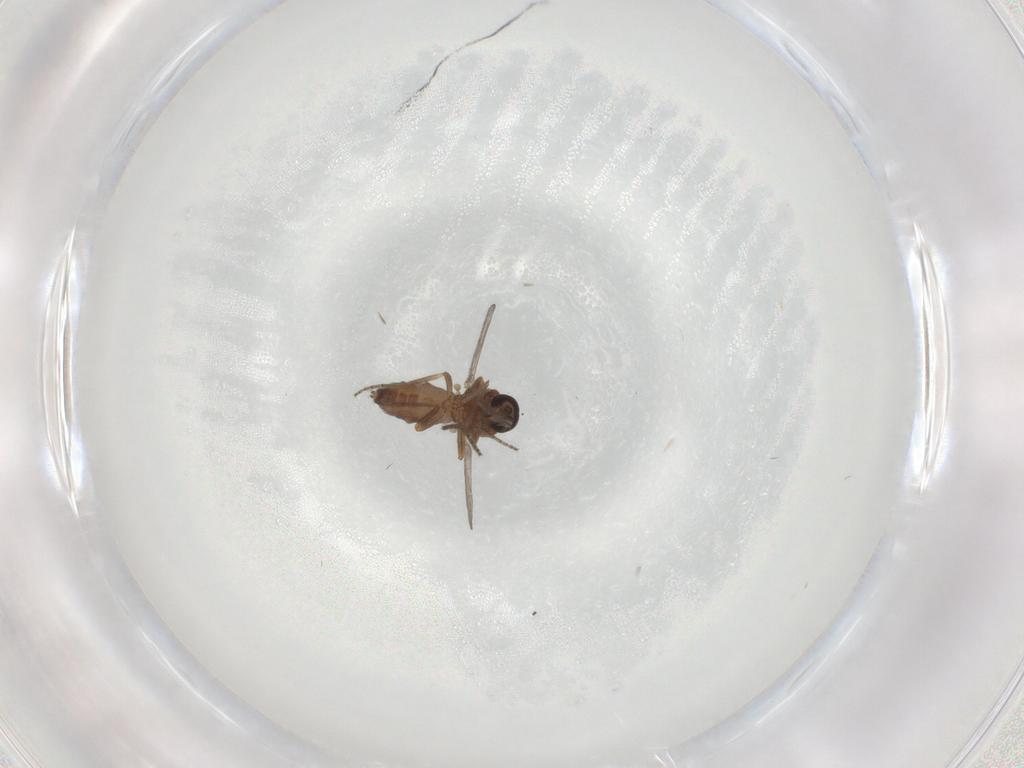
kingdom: Animalia
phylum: Arthropoda
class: Insecta
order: Diptera
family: Ceratopogonidae
